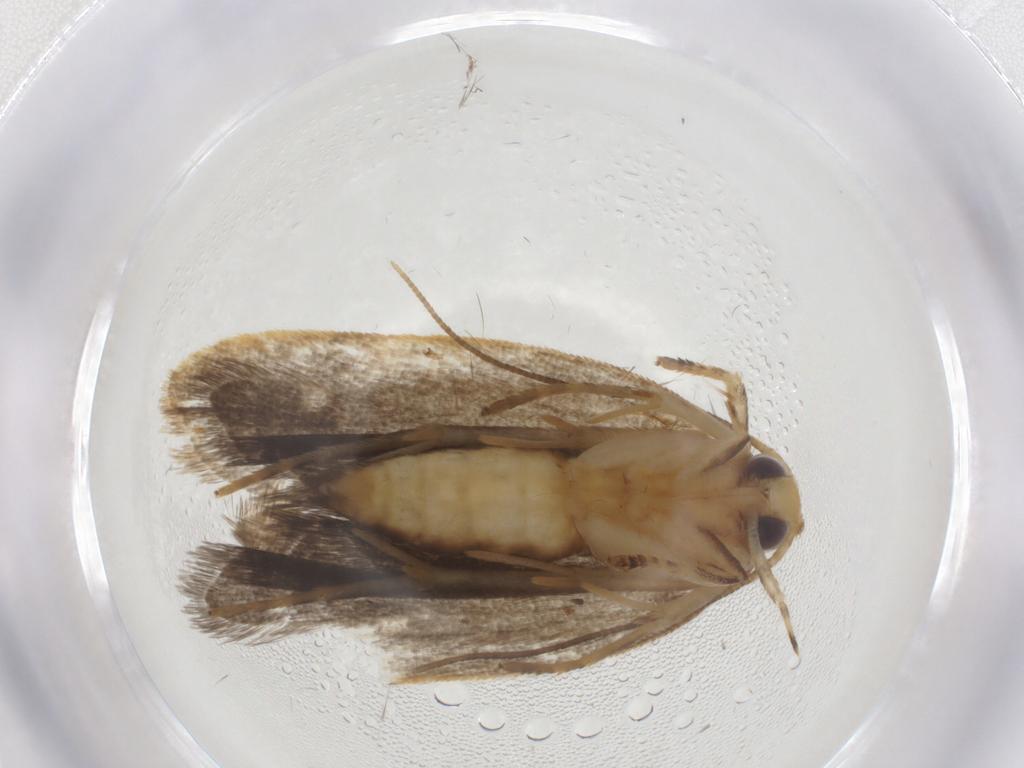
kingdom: Animalia
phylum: Arthropoda
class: Insecta
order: Lepidoptera
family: Depressariidae
